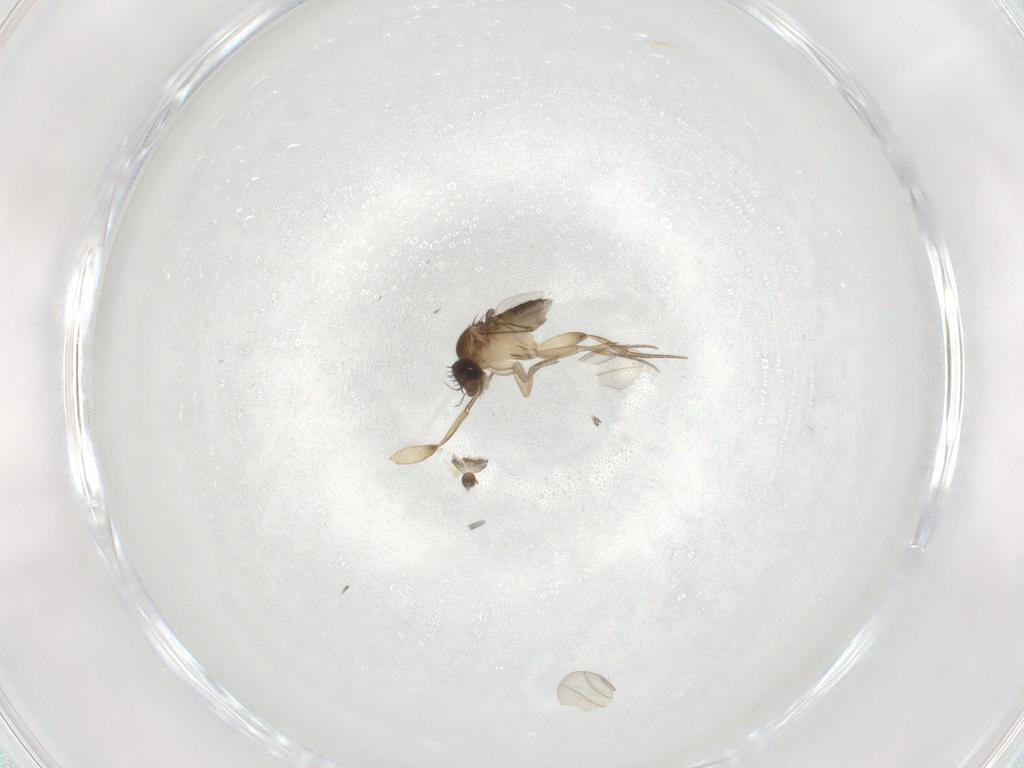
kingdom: Animalia
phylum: Arthropoda
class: Insecta
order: Diptera
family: Phoridae
